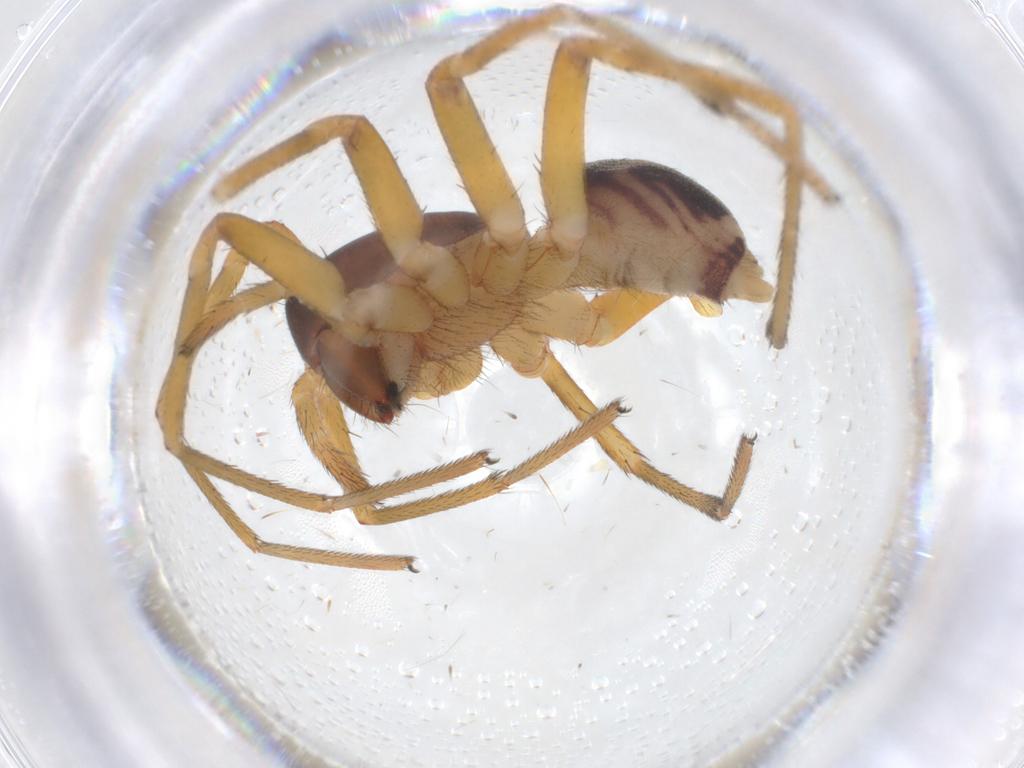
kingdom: Animalia
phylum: Arthropoda
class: Arachnida
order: Araneae
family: Zodariidae
